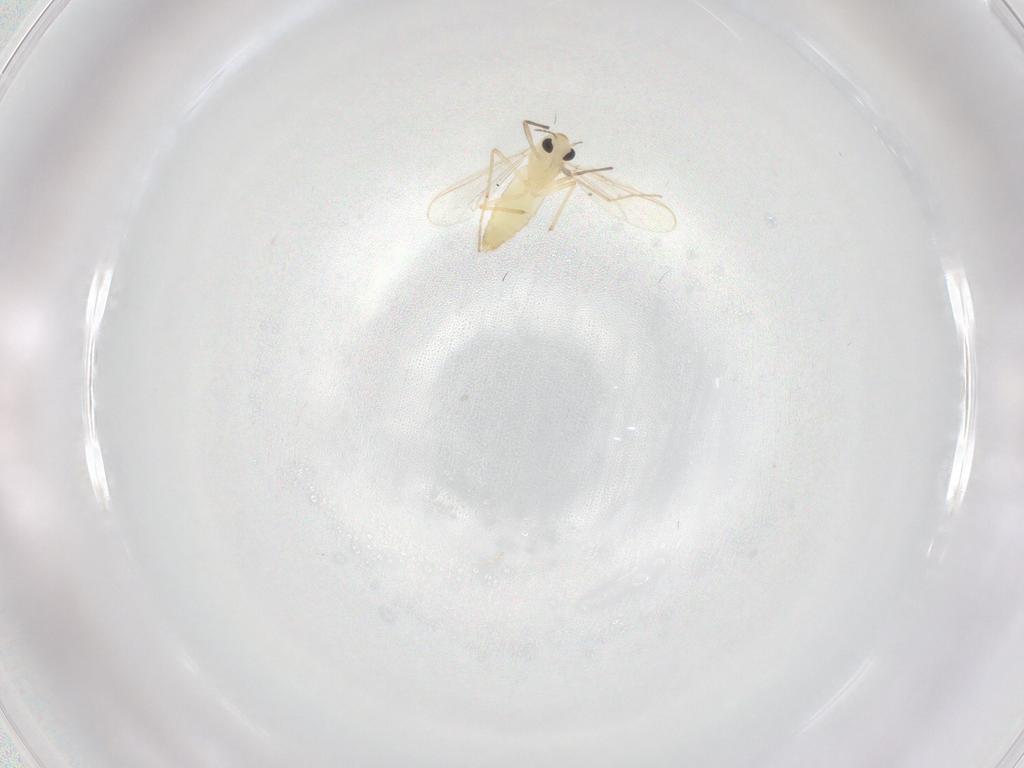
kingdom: Animalia
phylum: Arthropoda
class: Insecta
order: Diptera
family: Chironomidae
